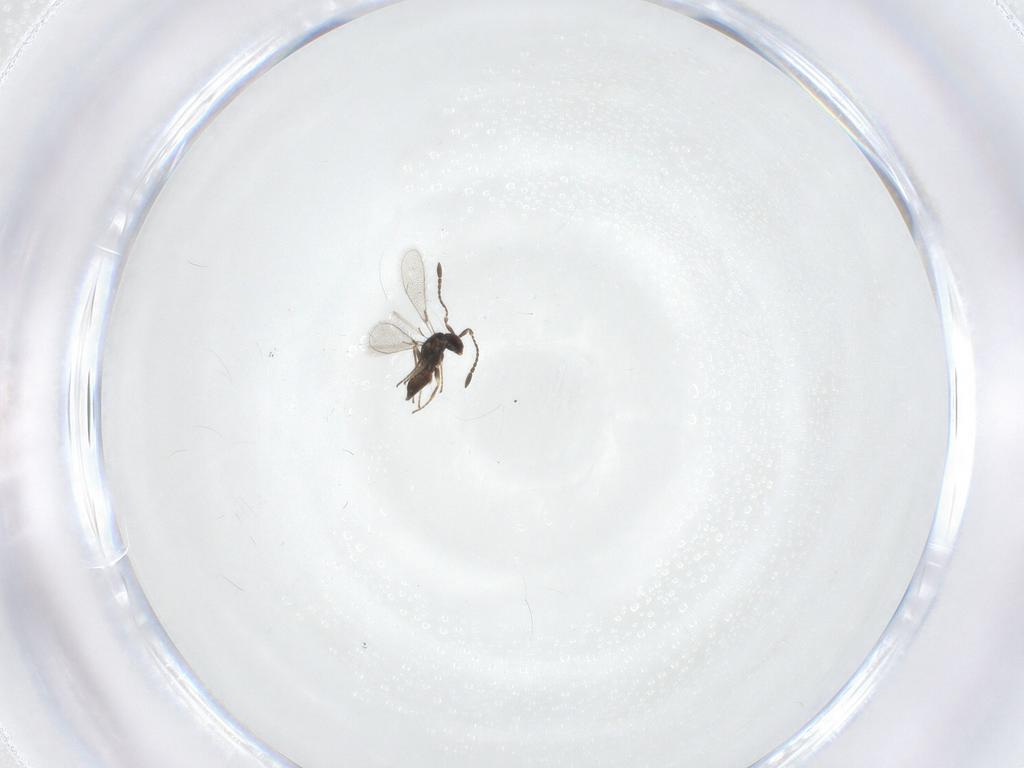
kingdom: Animalia
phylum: Arthropoda
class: Insecta
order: Hymenoptera
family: Mymaridae
